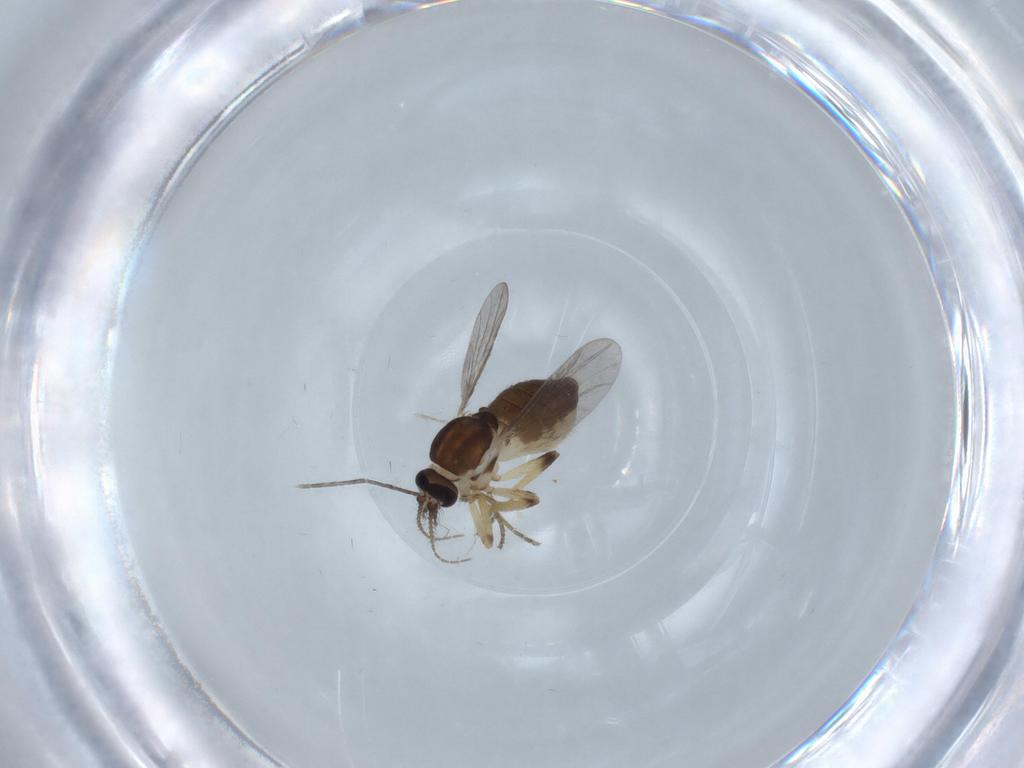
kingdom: Animalia
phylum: Arthropoda
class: Insecta
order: Diptera
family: Ceratopogonidae
